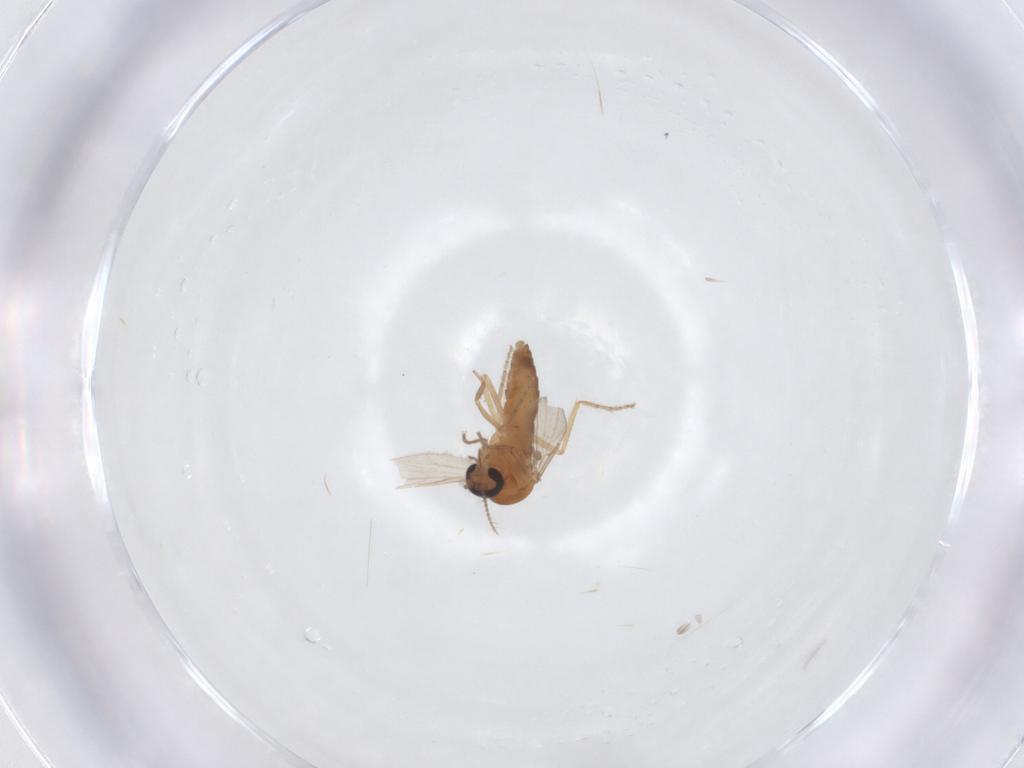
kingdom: Animalia
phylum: Arthropoda
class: Insecta
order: Diptera
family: Ceratopogonidae
